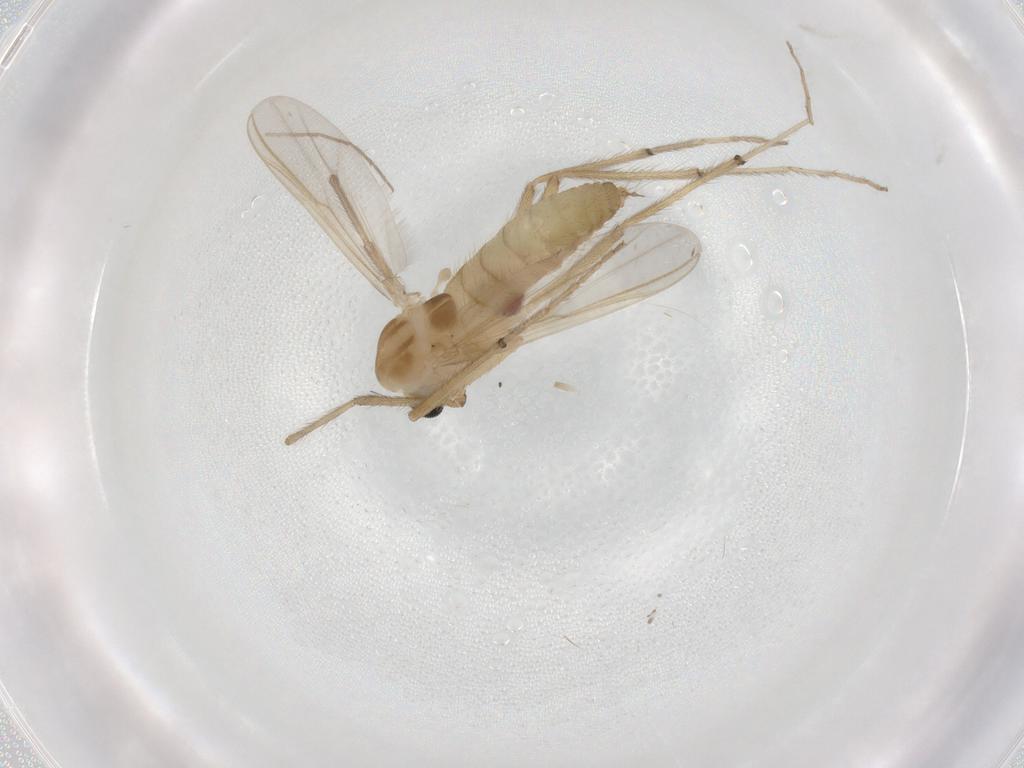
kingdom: Animalia
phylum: Arthropoda
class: Insecta
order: Diptera
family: Chironomidae
